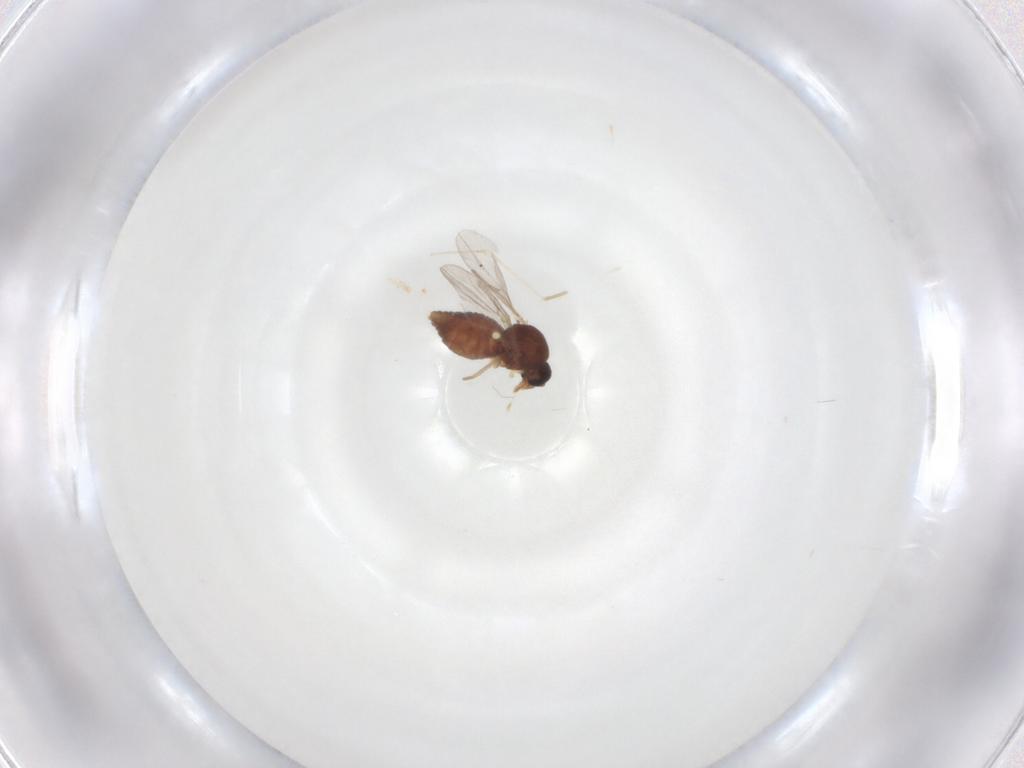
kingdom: Animalia
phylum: Arthropoda
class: Insecta
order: Diptera
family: Ceratopogonidae
